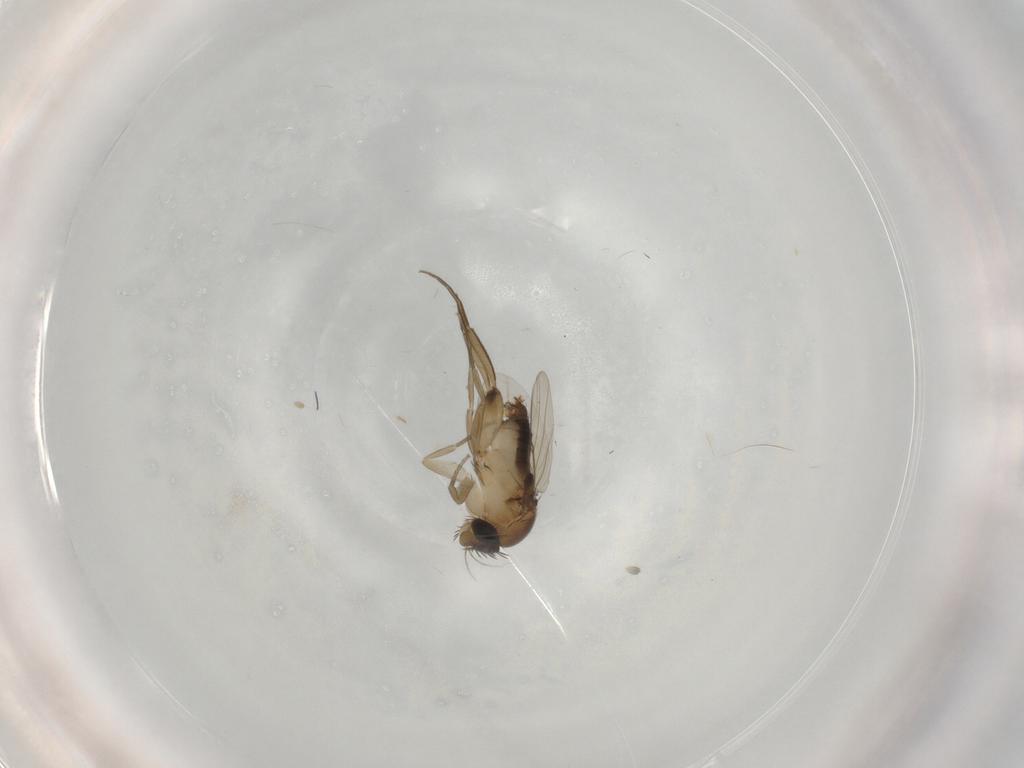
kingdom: Animalia
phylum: Arthropoda
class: Insecta
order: Diptera
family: Phoridae
